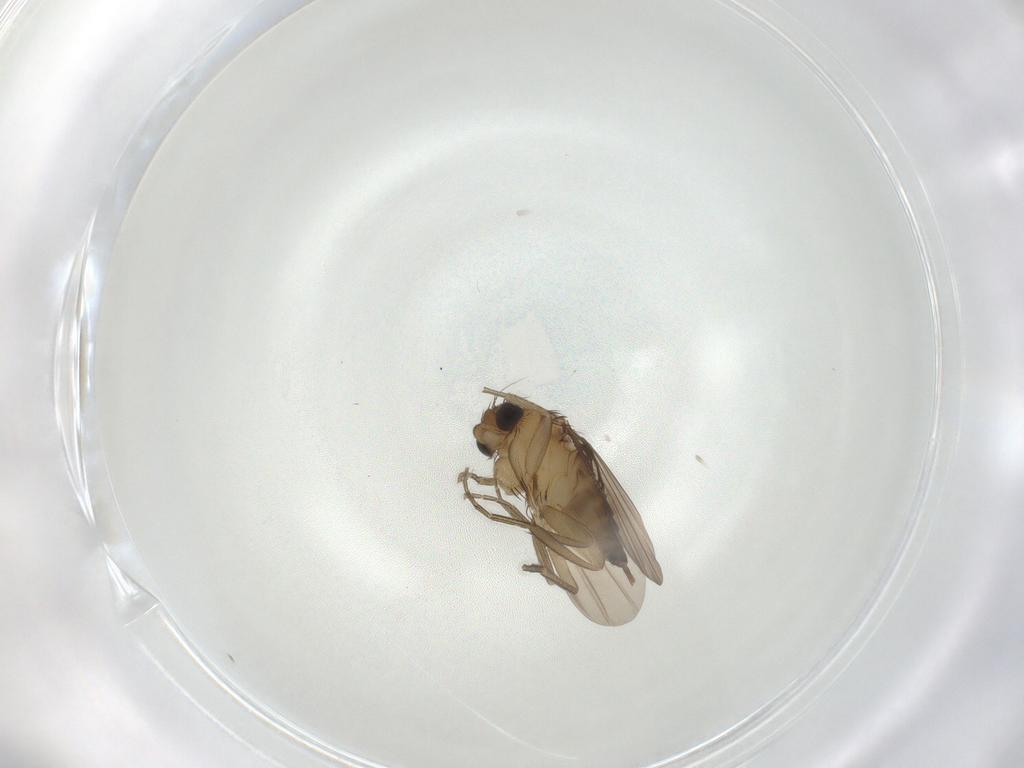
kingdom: Animalia
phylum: Arthropoda
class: Insecta
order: Diptera
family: Phoridae
